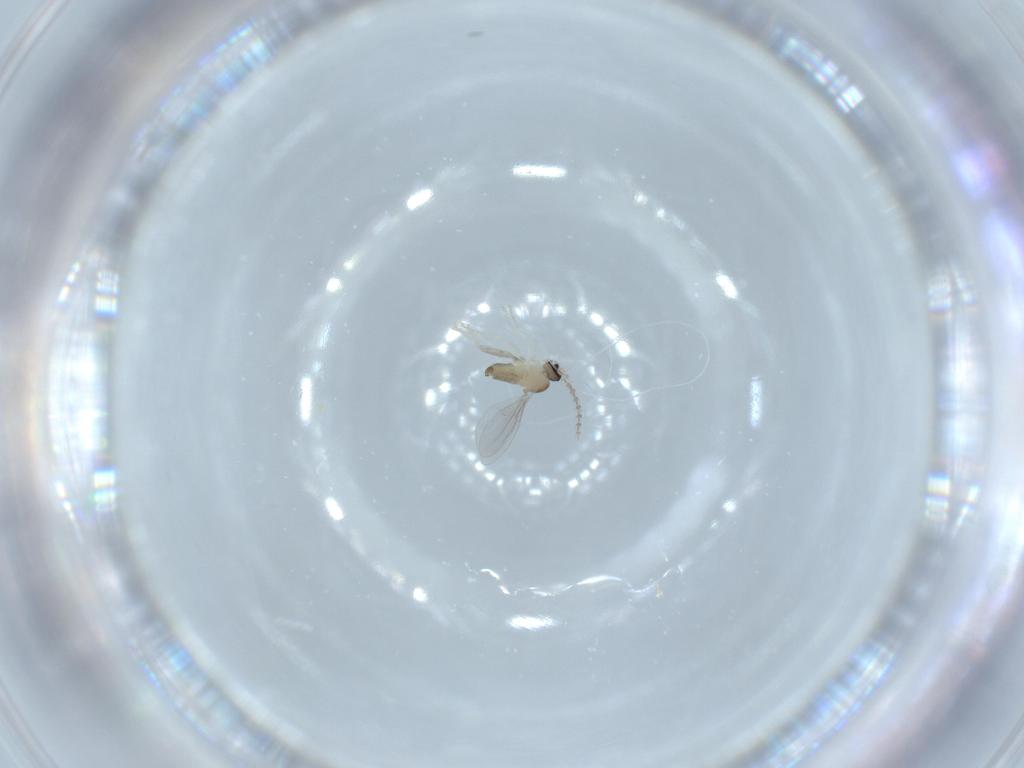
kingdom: Animalia
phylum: Arthropoda
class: Insecta
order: Diptera
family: Cecidomyiidae
